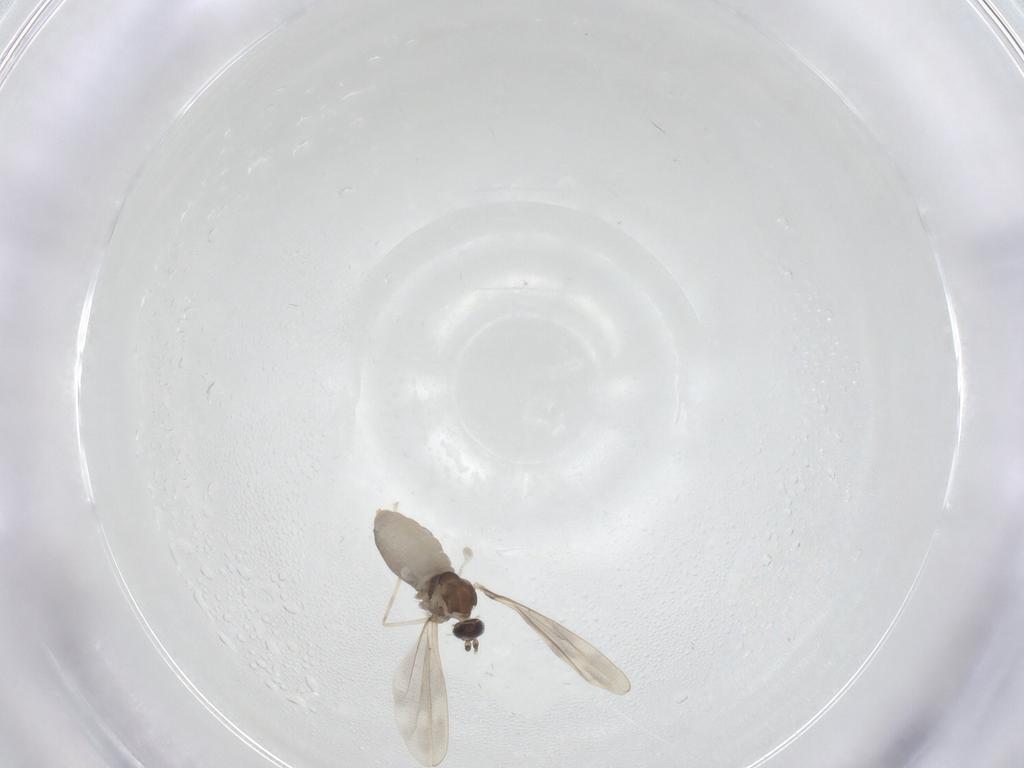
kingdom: Animalia
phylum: Arthropoda
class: Insecta
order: Diptera
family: Cecidomyiidae
